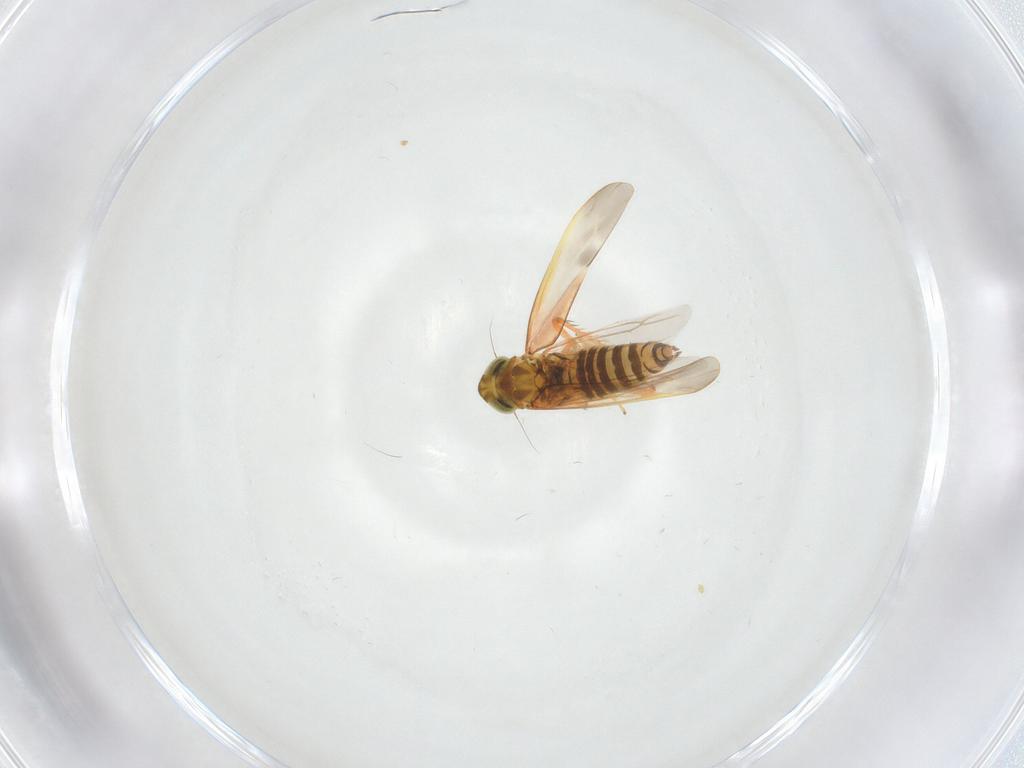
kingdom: Animalia
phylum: Arthropoda
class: Insecta
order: Hemiptera
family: Cicadellidae
